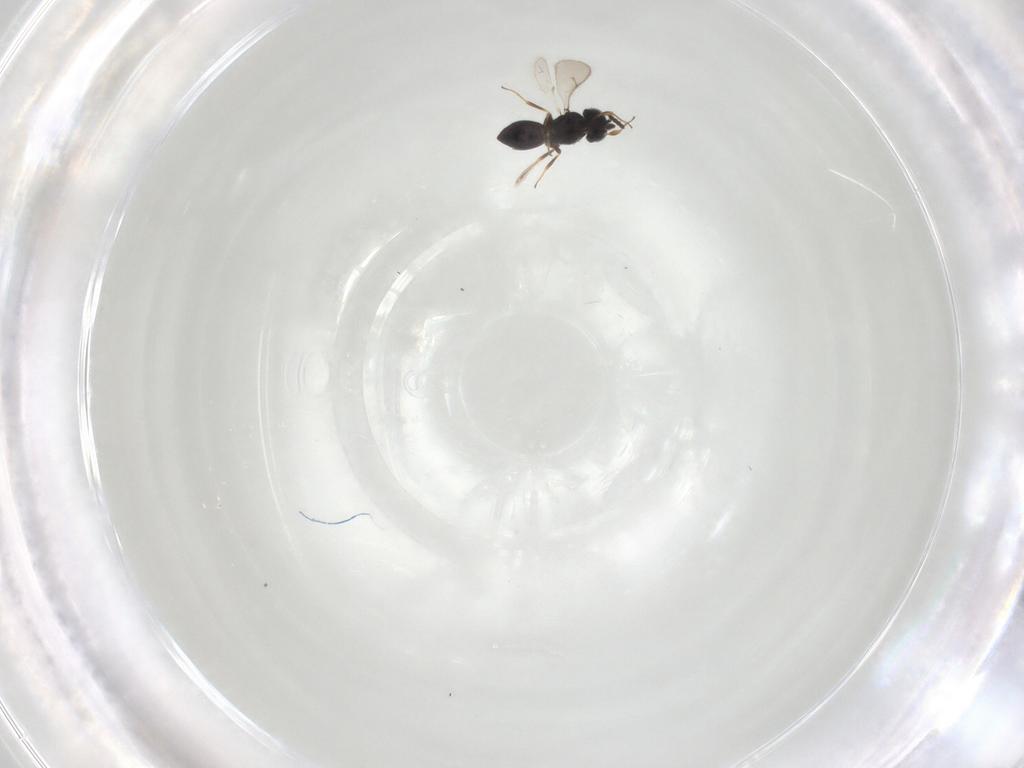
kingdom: Animalia
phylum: Arthropoda
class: Insecta
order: Hymenoptera
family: Scelionidae
